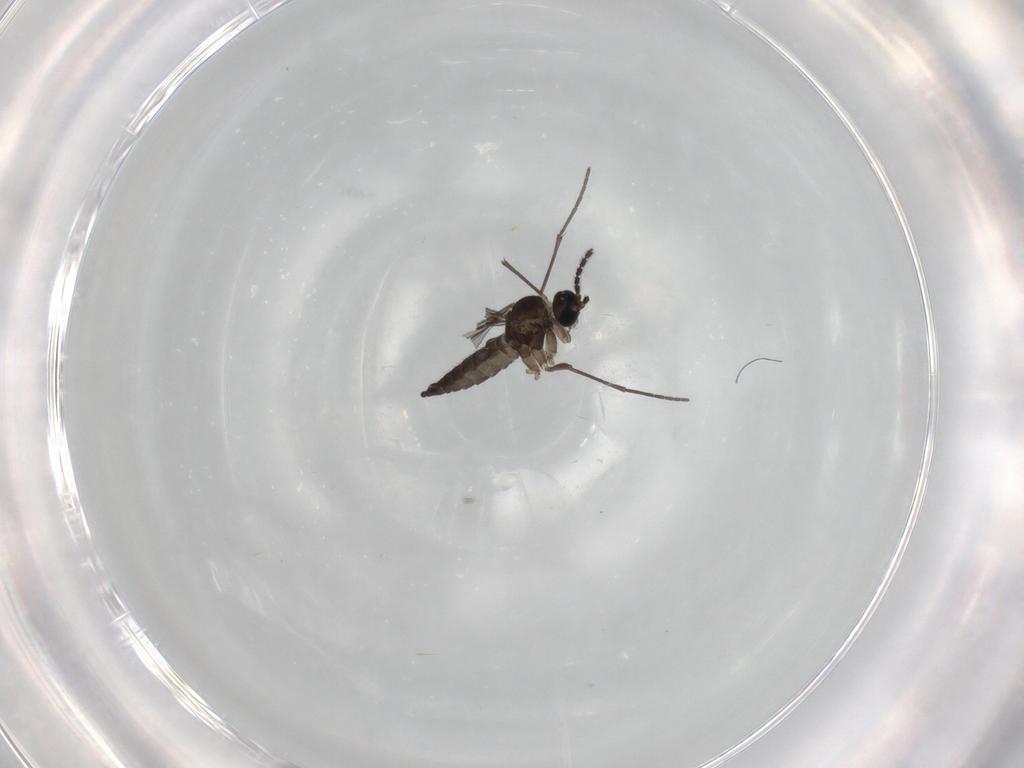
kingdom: Animalia
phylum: Arthropoda
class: Insecta
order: Diptera
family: Sciaridae
